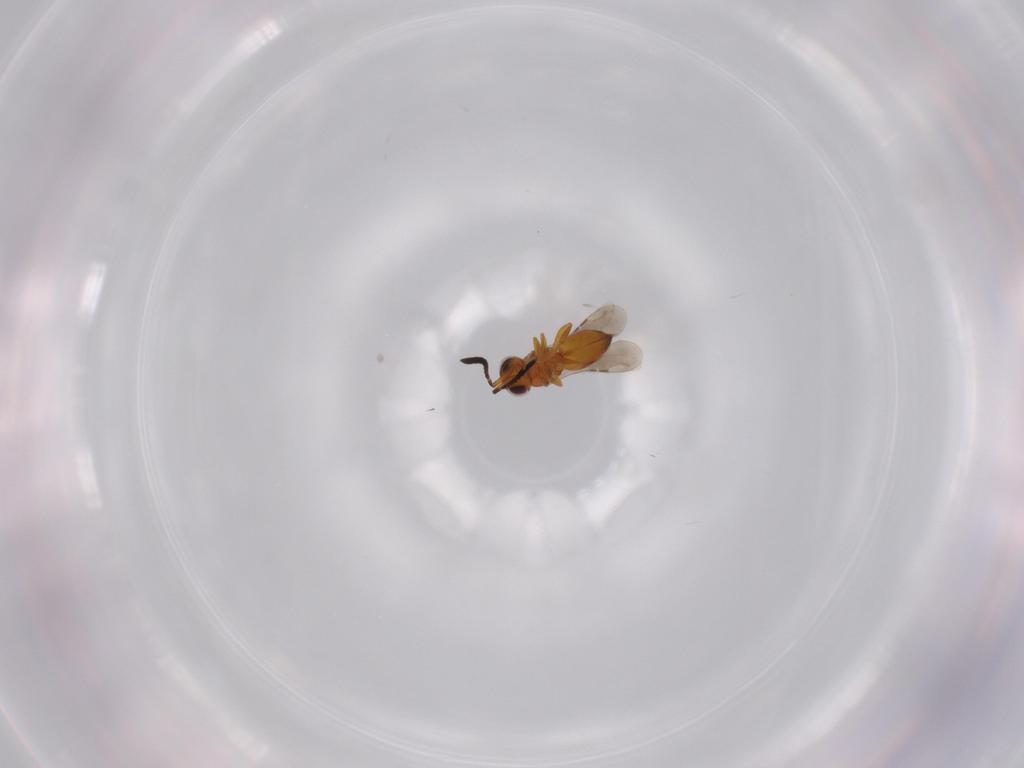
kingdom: Animalia
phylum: Arthropoda
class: Insecta
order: Hymenoptera
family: Ceraphronidae
